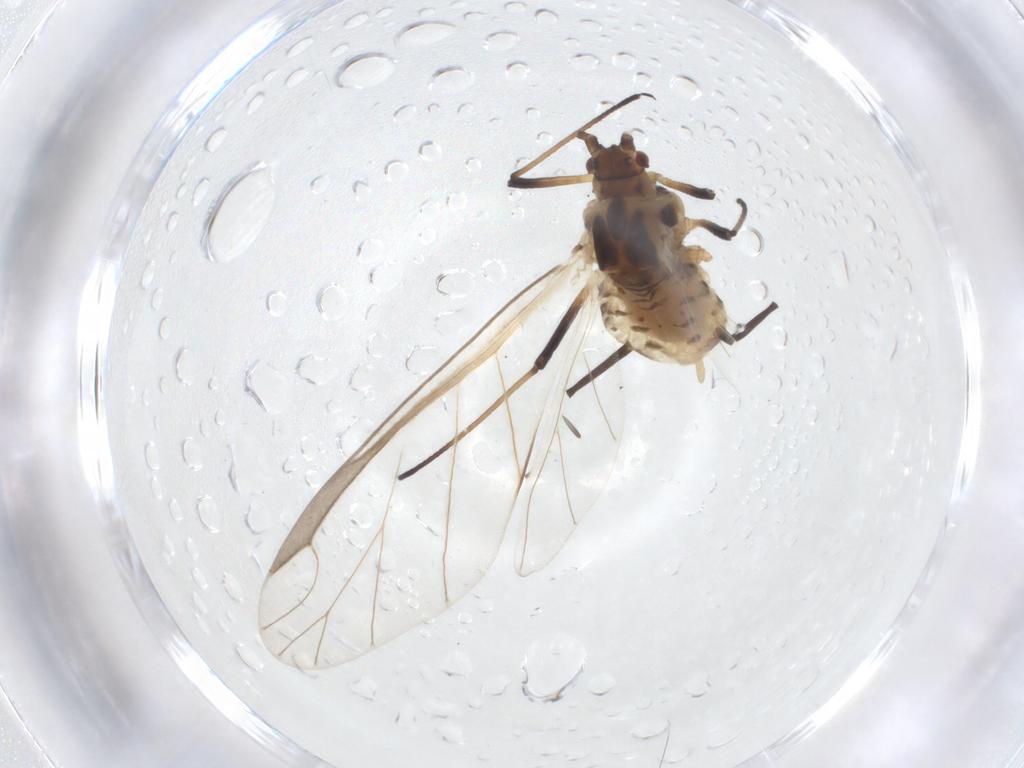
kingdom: Animalia
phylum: Arthropoda
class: Insecta
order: Hemiptera
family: Aphididae
